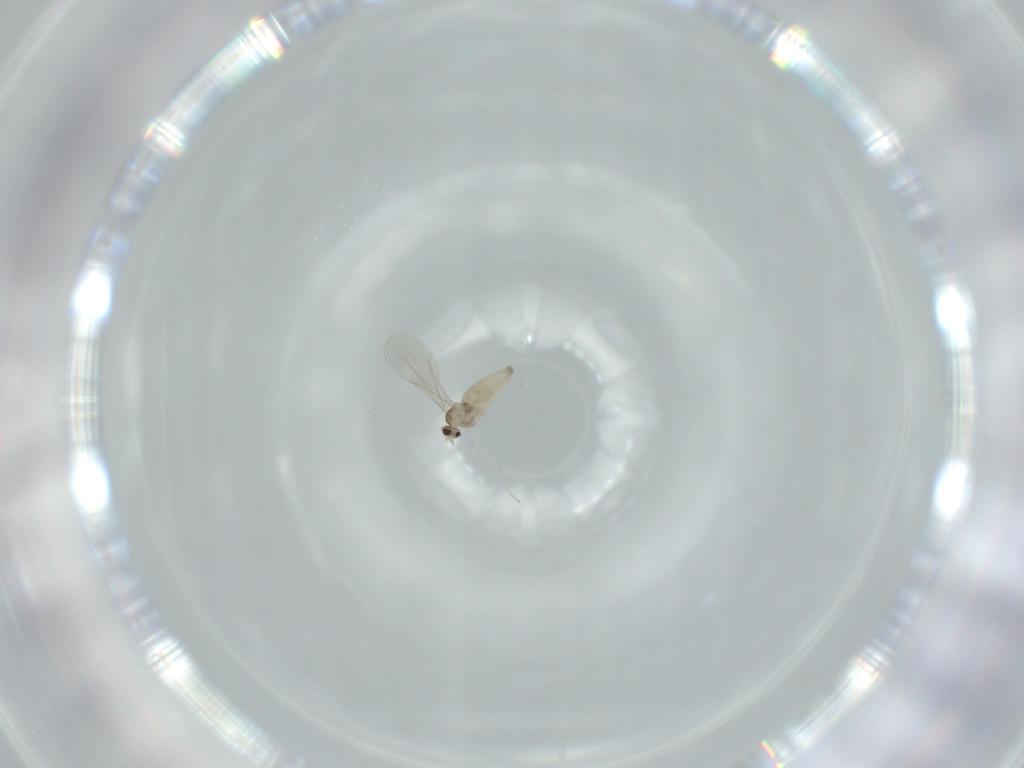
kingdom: Animalia
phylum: Arthropoda
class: Insecta
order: Diptera
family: Cecidomyiidae
